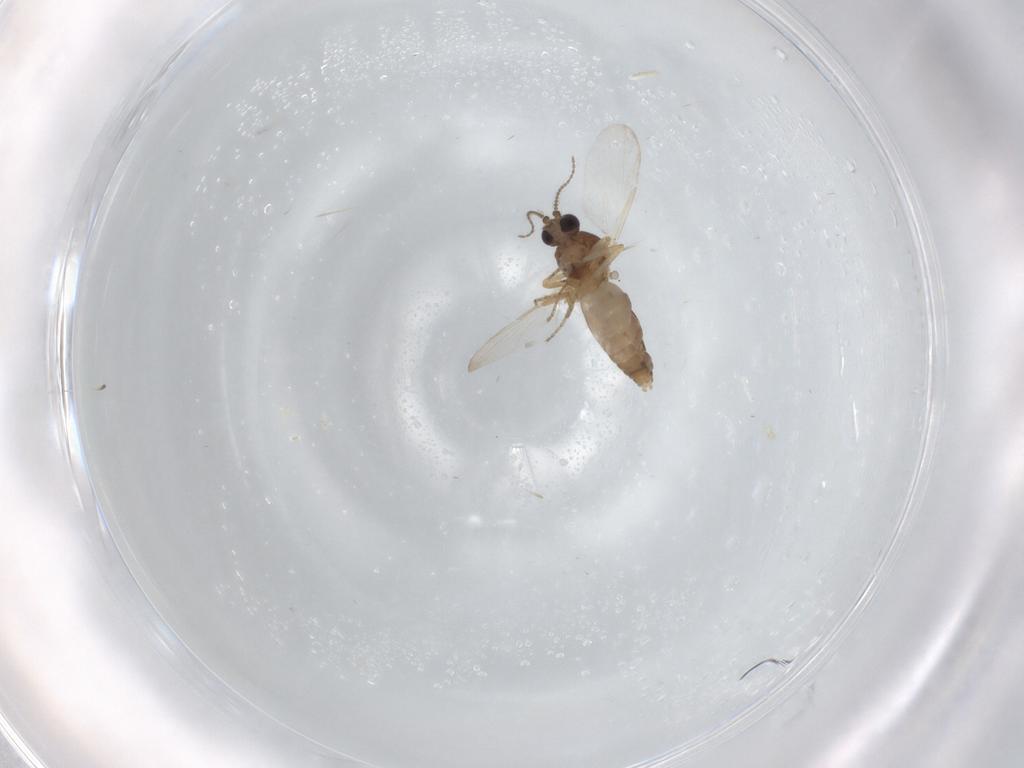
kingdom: Animalia
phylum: Arthropoda
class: Insecta
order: Diptera
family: Ceratopogonidae
